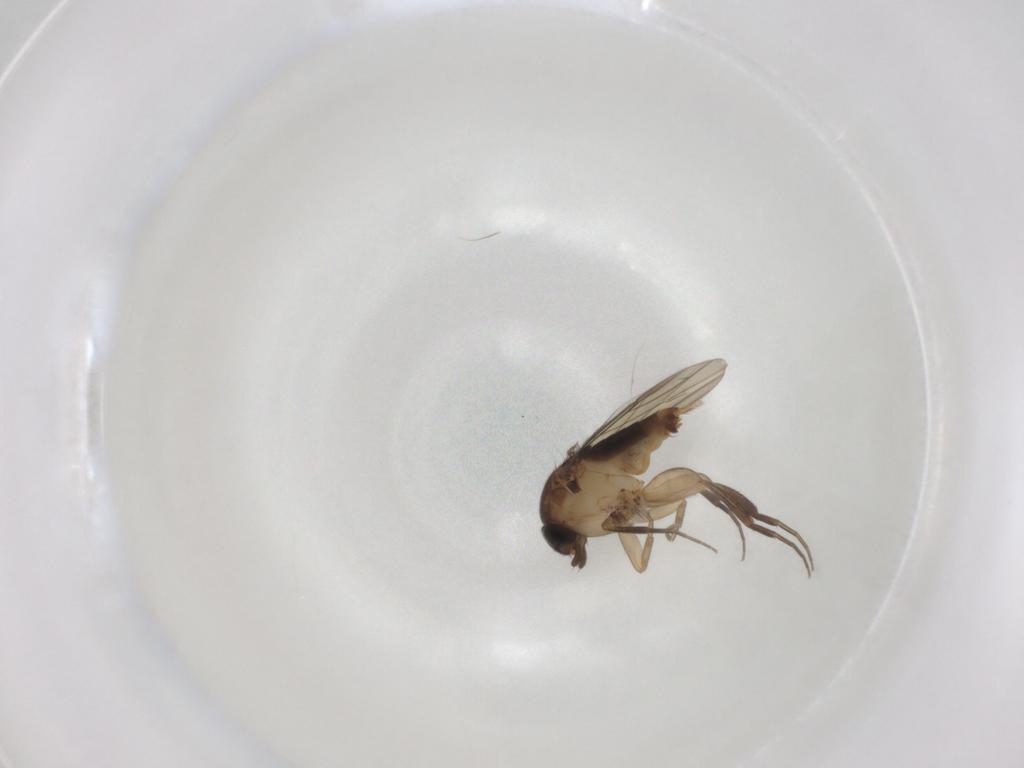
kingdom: Animalia
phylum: Arthropoda
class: Insecta
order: Diptera
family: Phoridae
